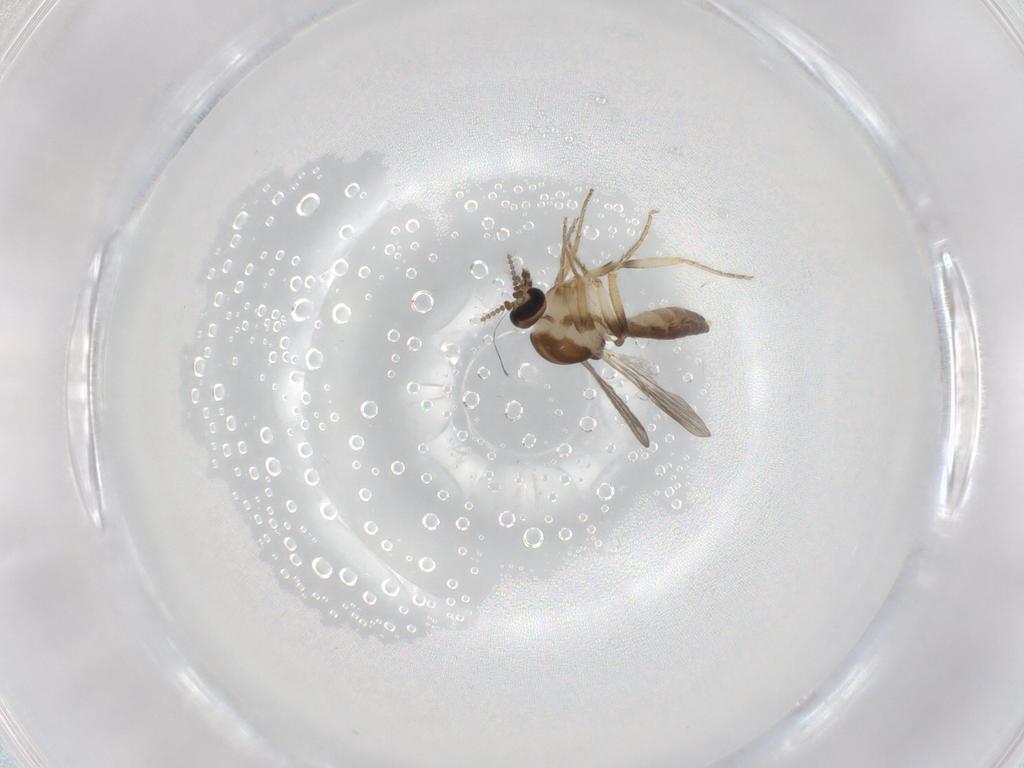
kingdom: Animalia
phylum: Arthropoda
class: Insecta
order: Diptera
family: Ceratopogonidae
